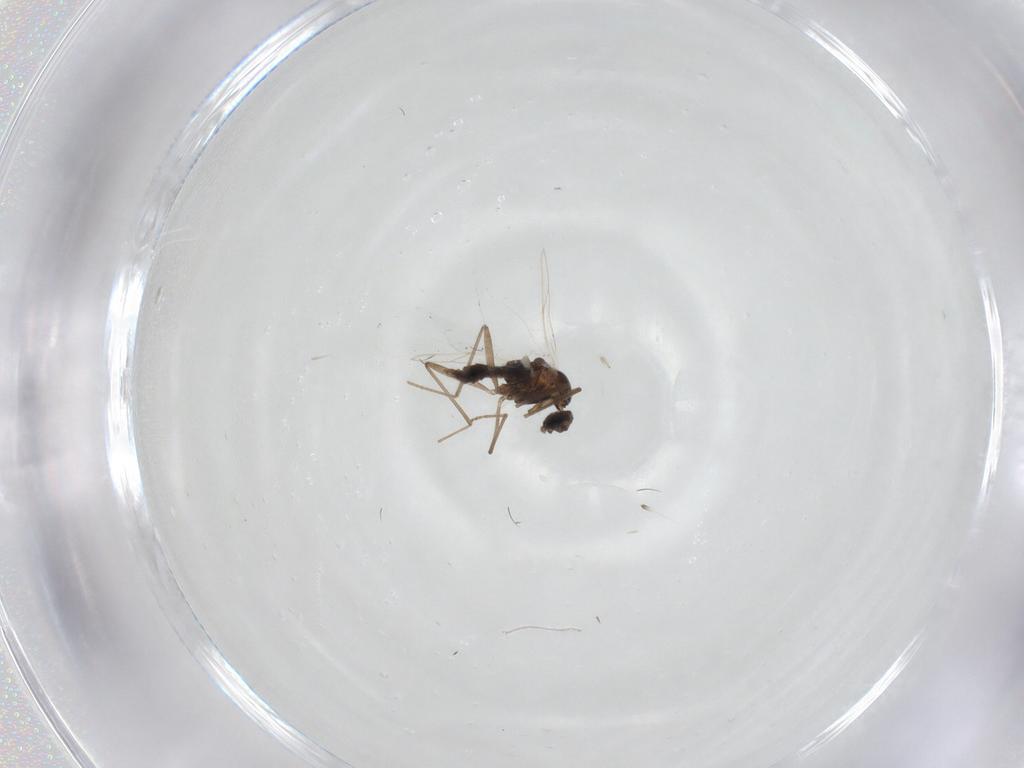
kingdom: Animalia
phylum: Arthropoda
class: Insecta
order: Diptera
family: Cecidomyiidae
